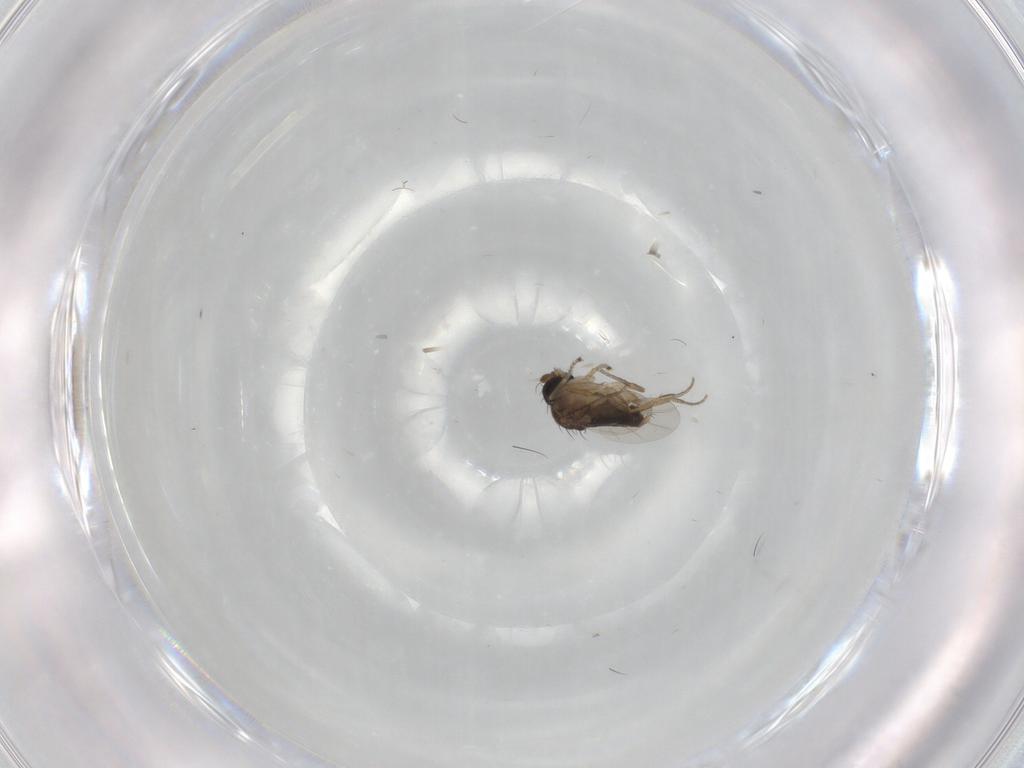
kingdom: Animalia
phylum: Arthropoda
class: Insecta
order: Diptera
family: Phoridae
